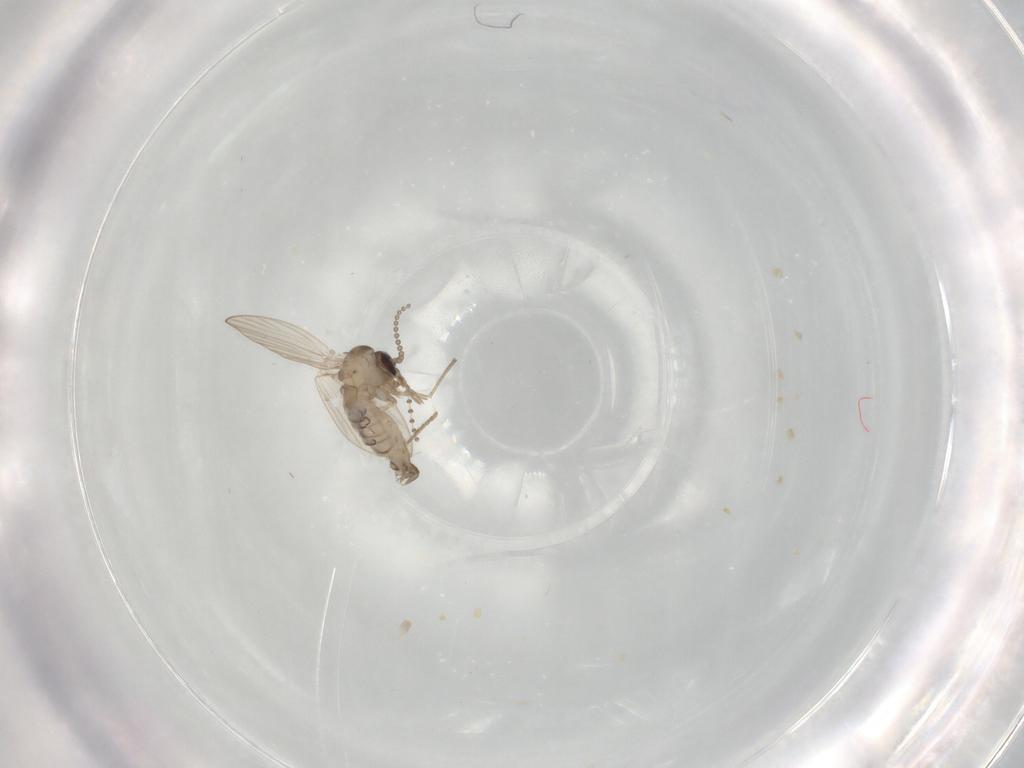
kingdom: Animalia
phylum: Arthropoda
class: Insecta
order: Diptera
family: Psychodidae
